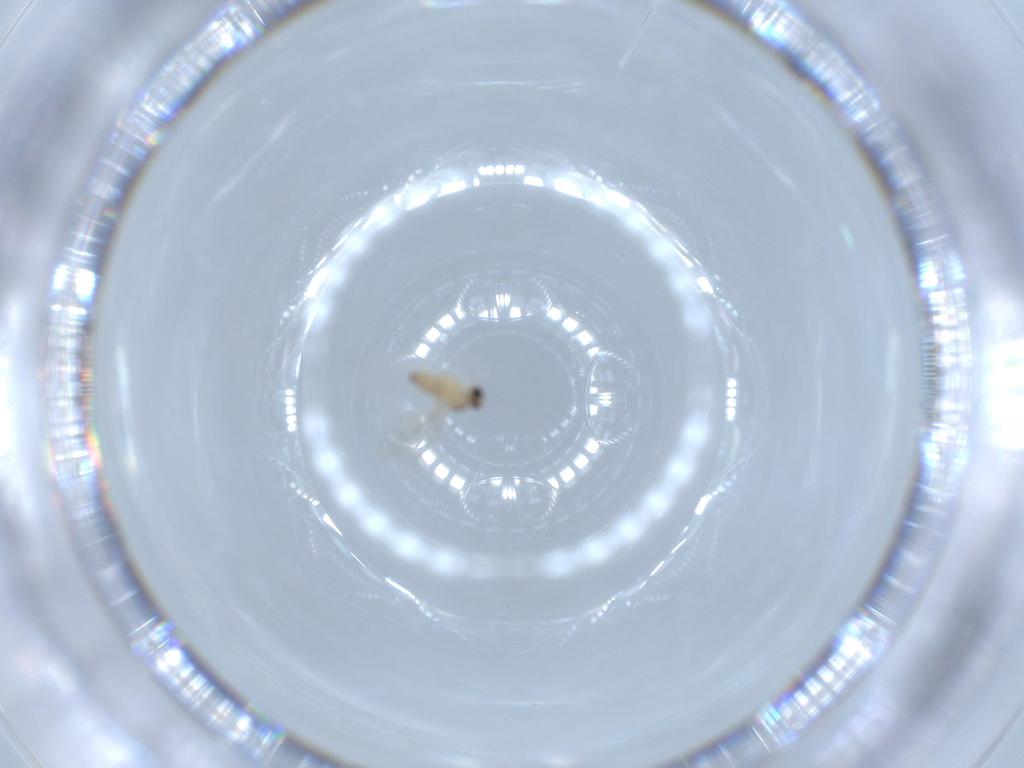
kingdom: Animalia
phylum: Arthropoda
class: Insecta
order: Diptera
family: Cecidomyiidae
